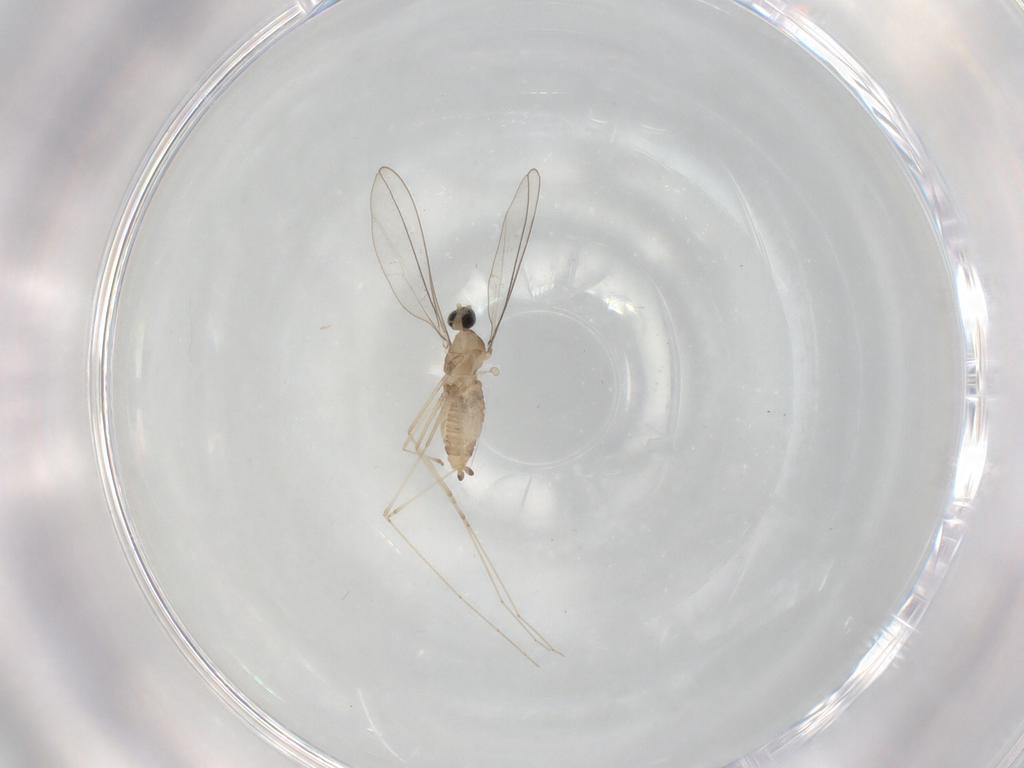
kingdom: Animalia
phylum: Arthropoda
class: Insecta
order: Diptera
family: Cecidomyiidae
